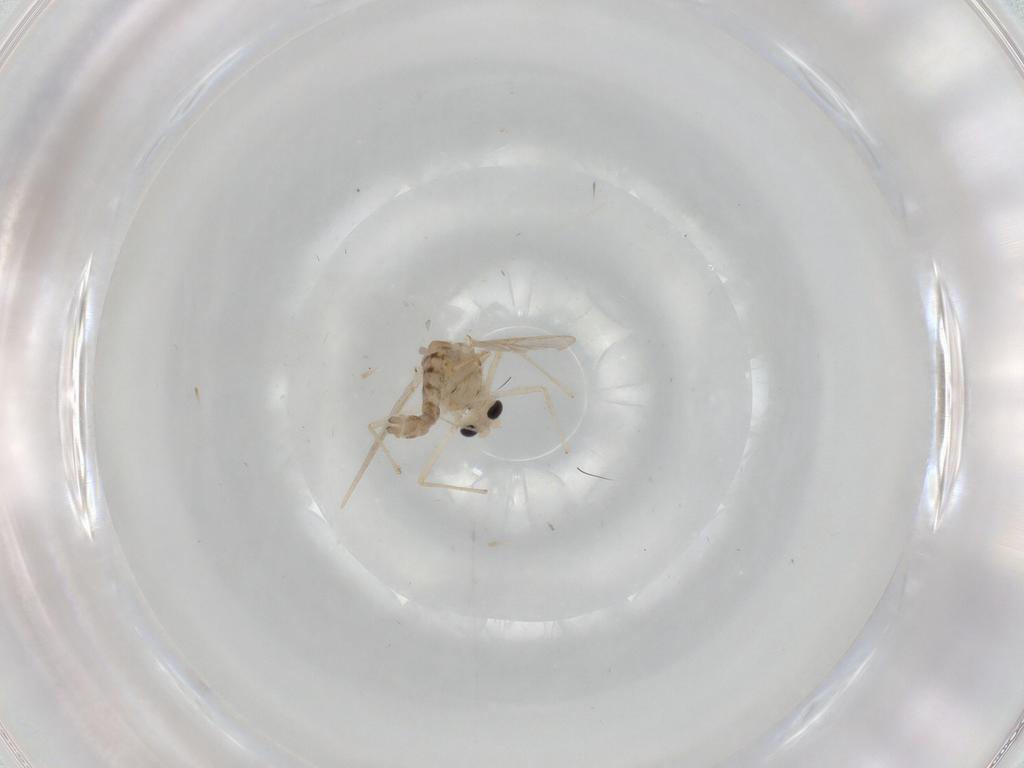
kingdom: Animalia
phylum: Arthropoda
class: Insecta
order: Diptera
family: Chironomidae
